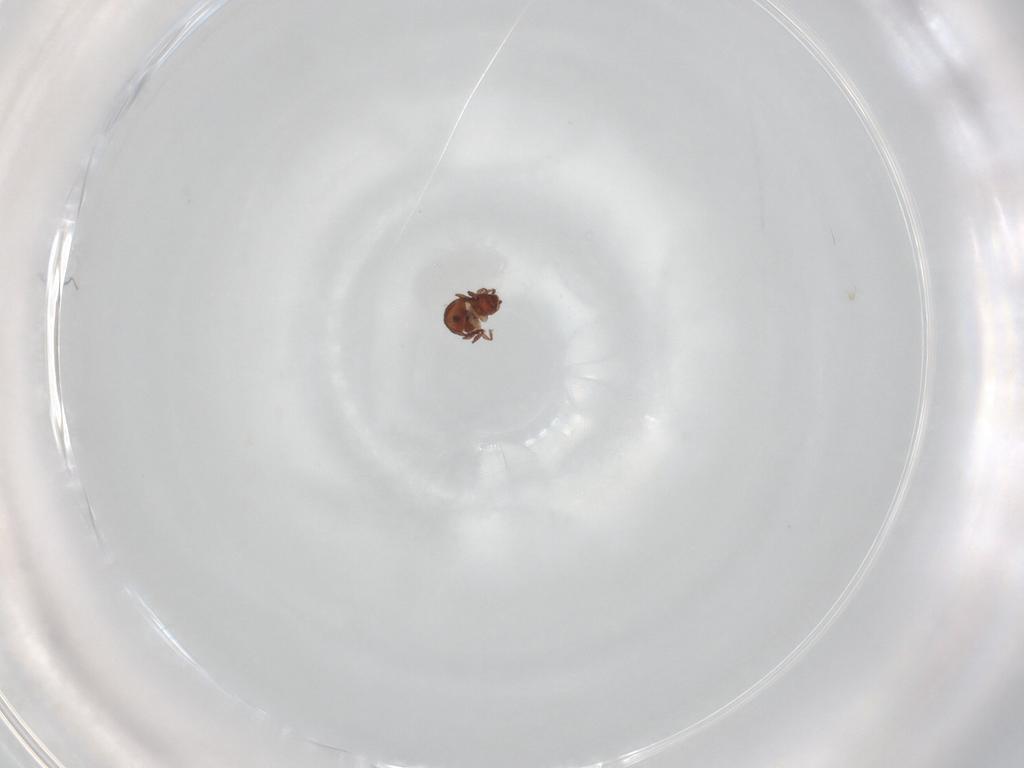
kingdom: Animalia
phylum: Arthropoda
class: Arachnida
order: Sarcoptiformes
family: Scheloribatidae
